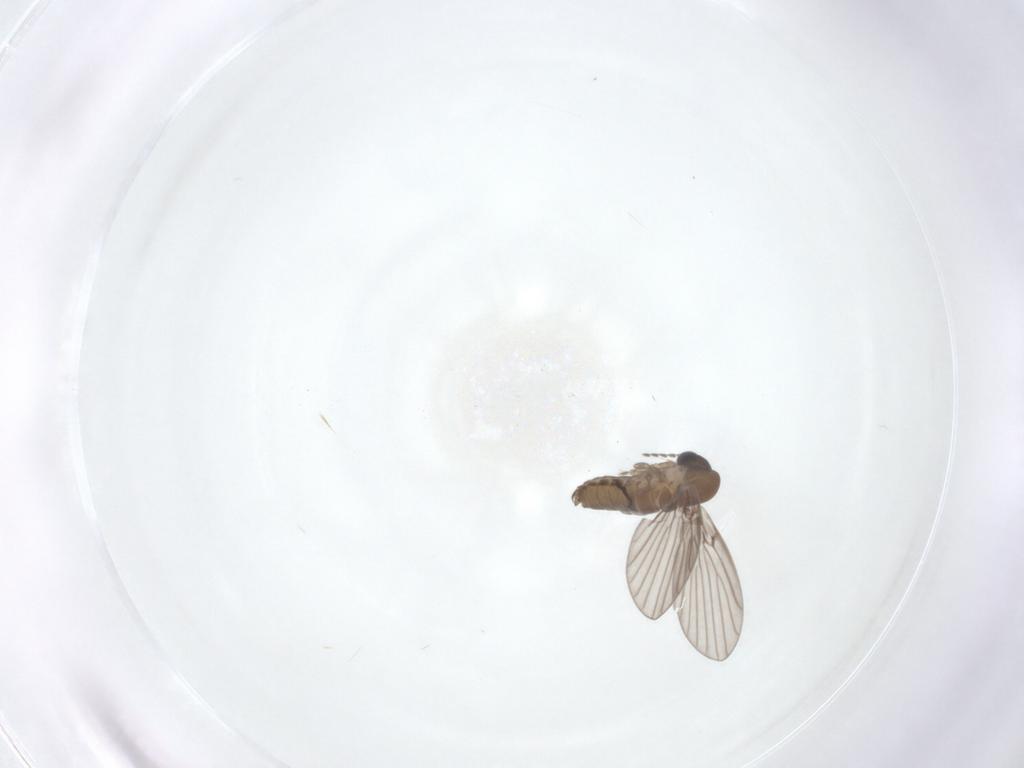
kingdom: Animalia
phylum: Arthropoda
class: Insecta
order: Diptera
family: Psychodidae
